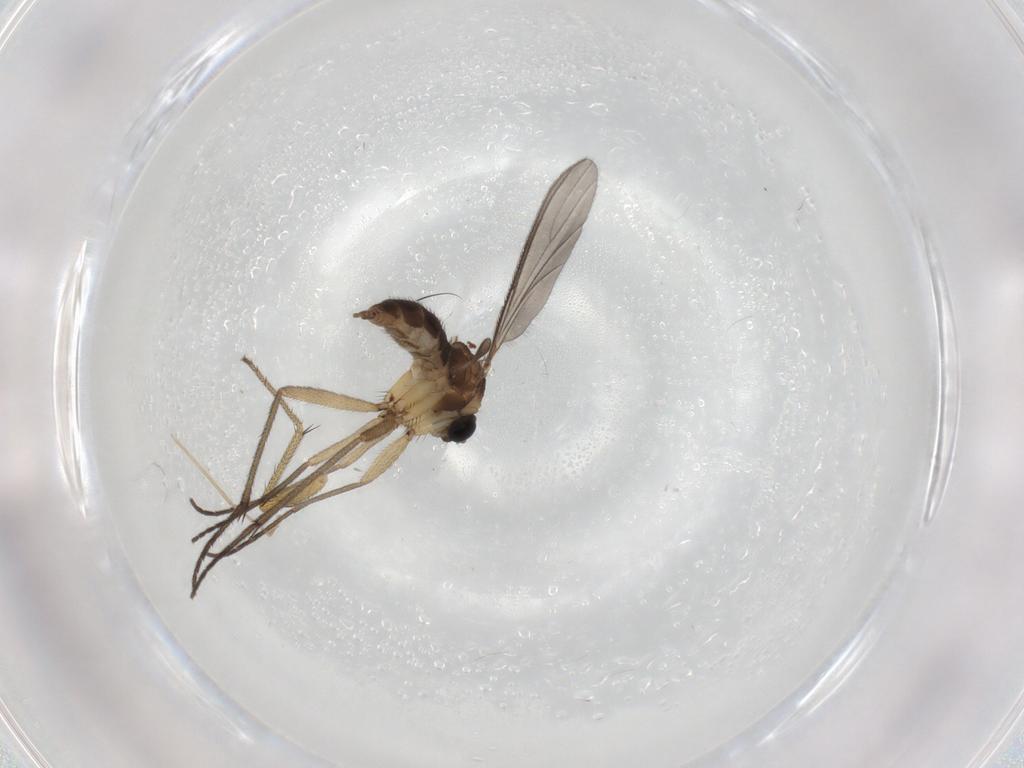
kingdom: Animalia
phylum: Arthropoda
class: Insecta
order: Diptera
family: Sciaridae
